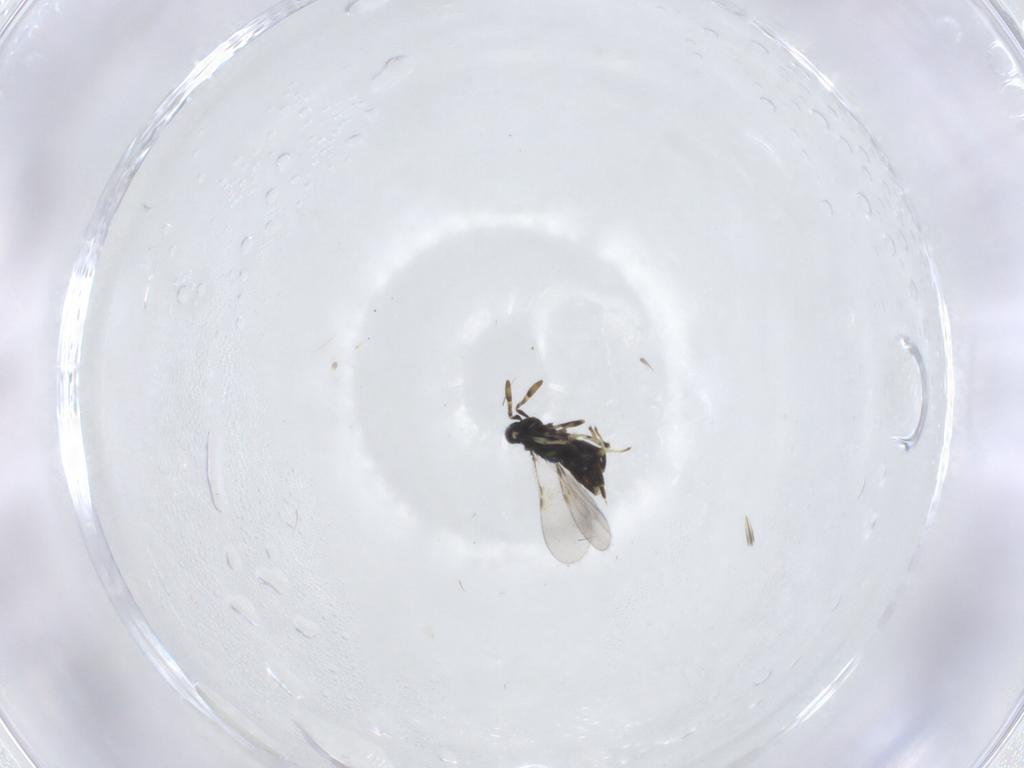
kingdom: Animalia
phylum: Arthropoda
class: Insecta
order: Hymenoptera
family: Encyrtidae
